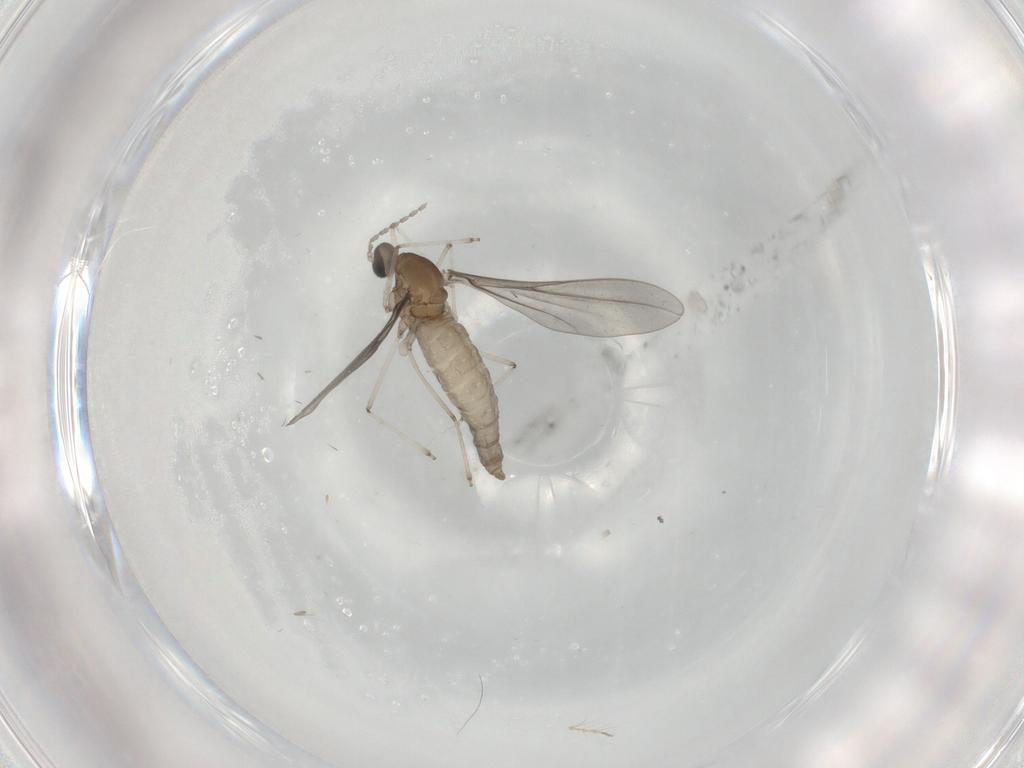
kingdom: Animalia
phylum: Arthropoda
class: Insecta
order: Diptera
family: Cecidomyiidae
